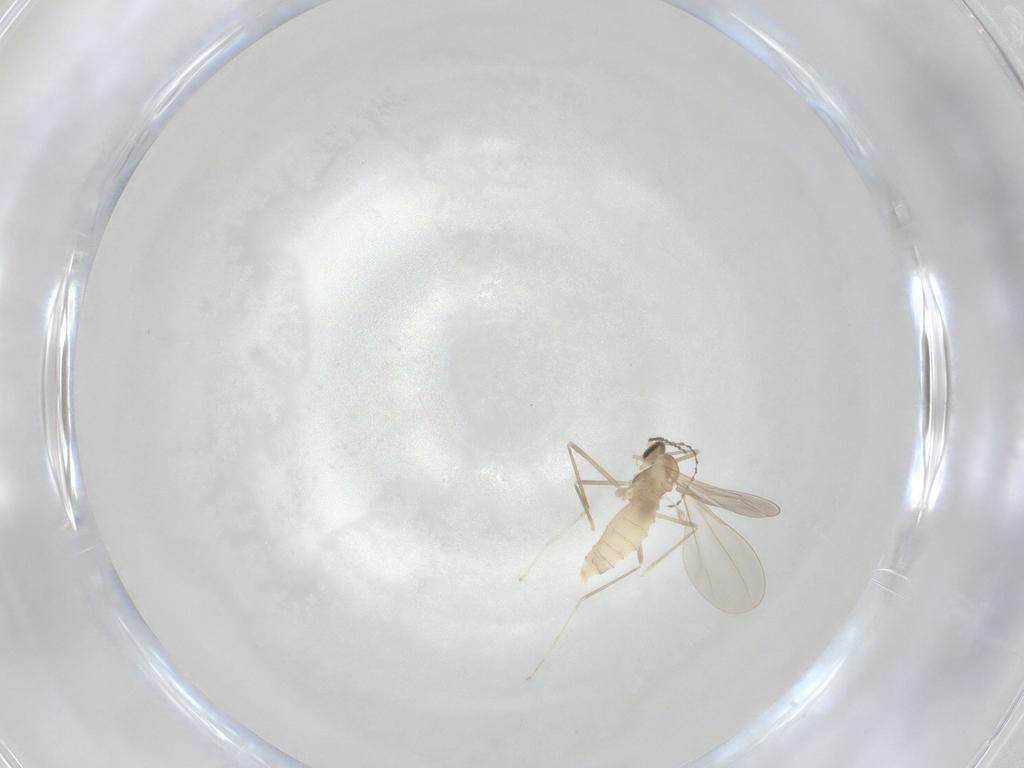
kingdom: Animalia
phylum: Arthropoda
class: Insecta
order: Diptera
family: Cecidomyiidae
